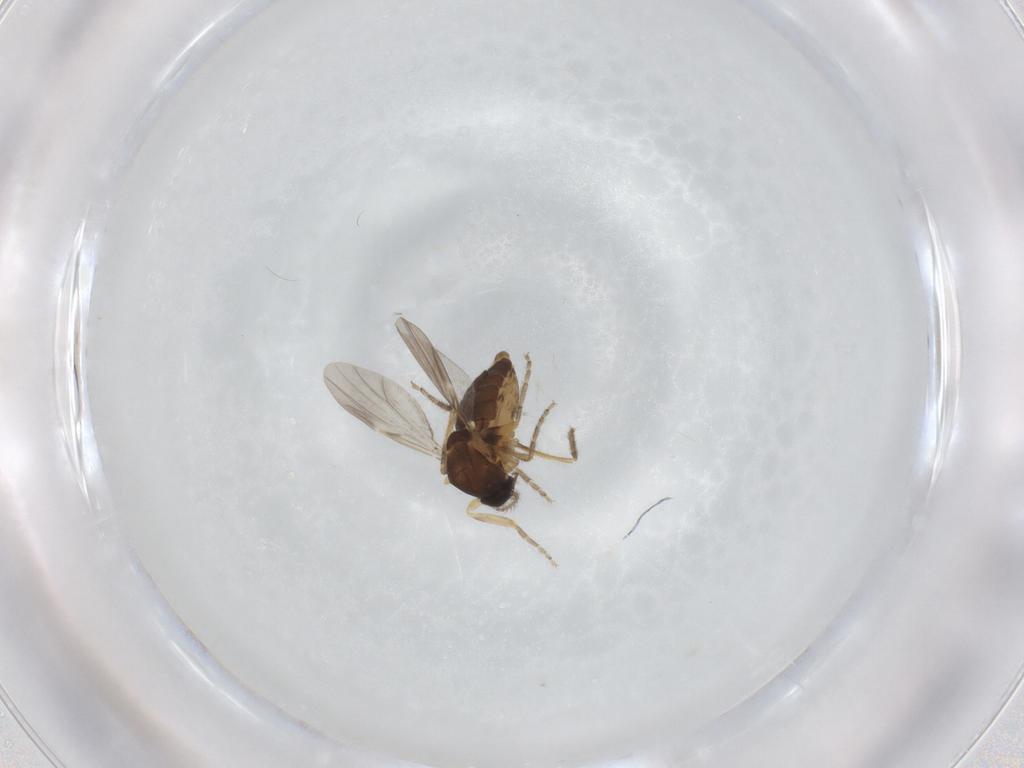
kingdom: Animalia
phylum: Arthropoda
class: Insecta
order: Diptera
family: Ceratopogonidae
